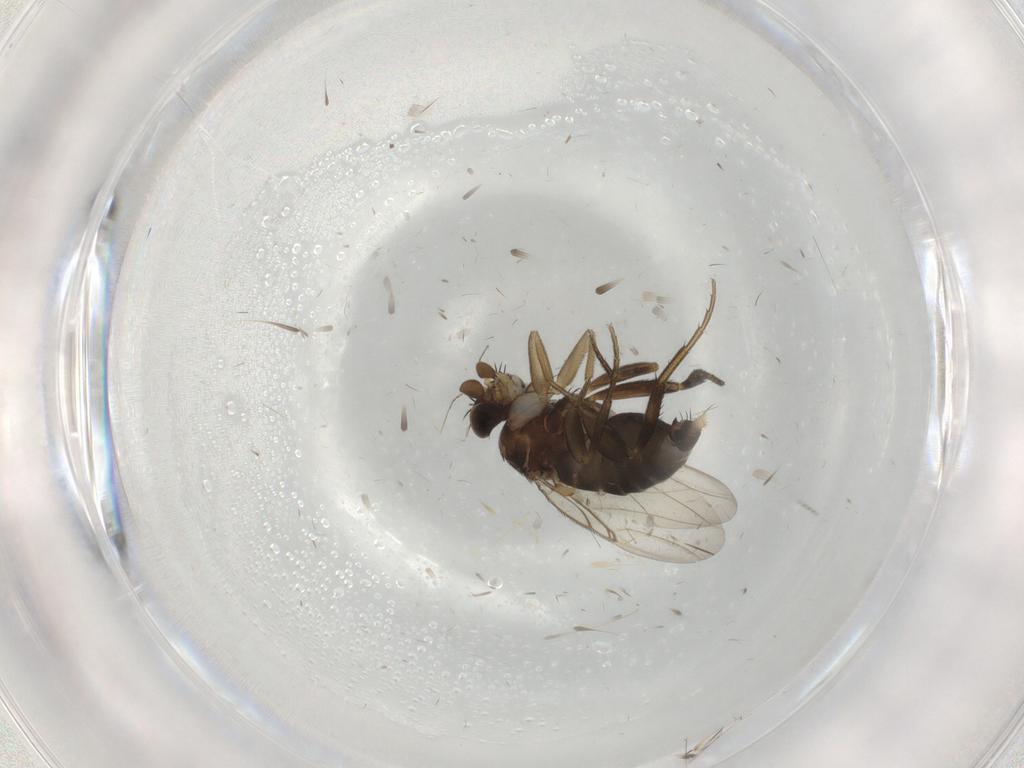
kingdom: Animalia
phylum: Arthropoda
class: Insecta
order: Diptera
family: Phoridae
